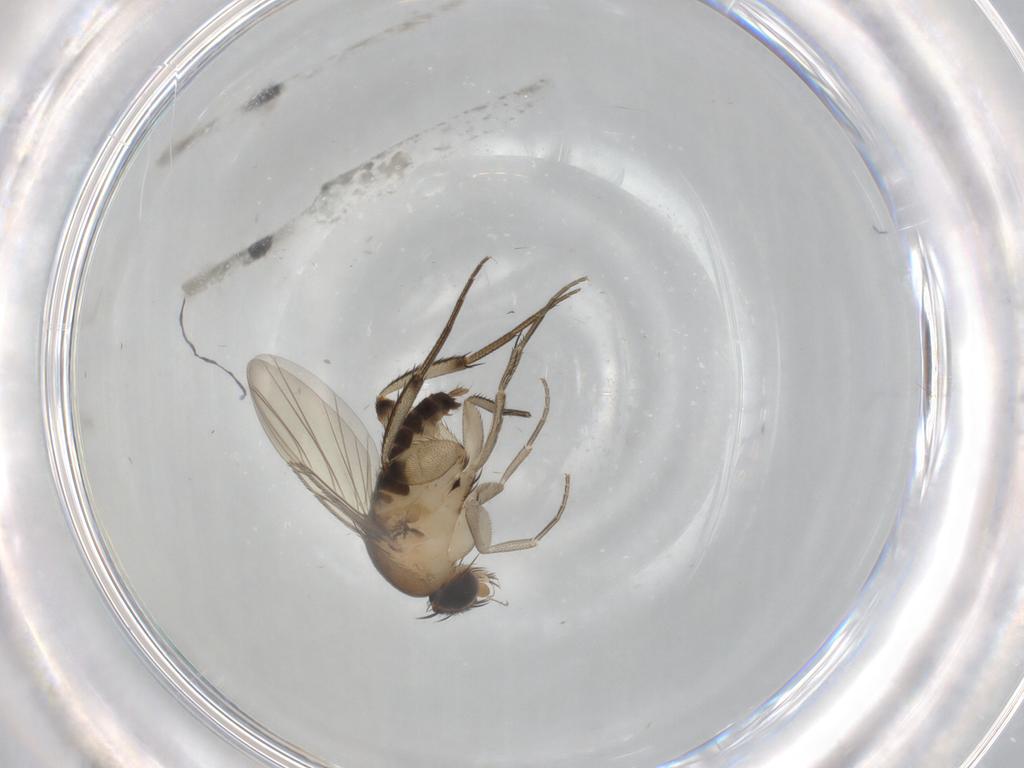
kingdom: Animalia
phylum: Arthropoda
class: Insecta
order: Diptera
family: Phoridae
